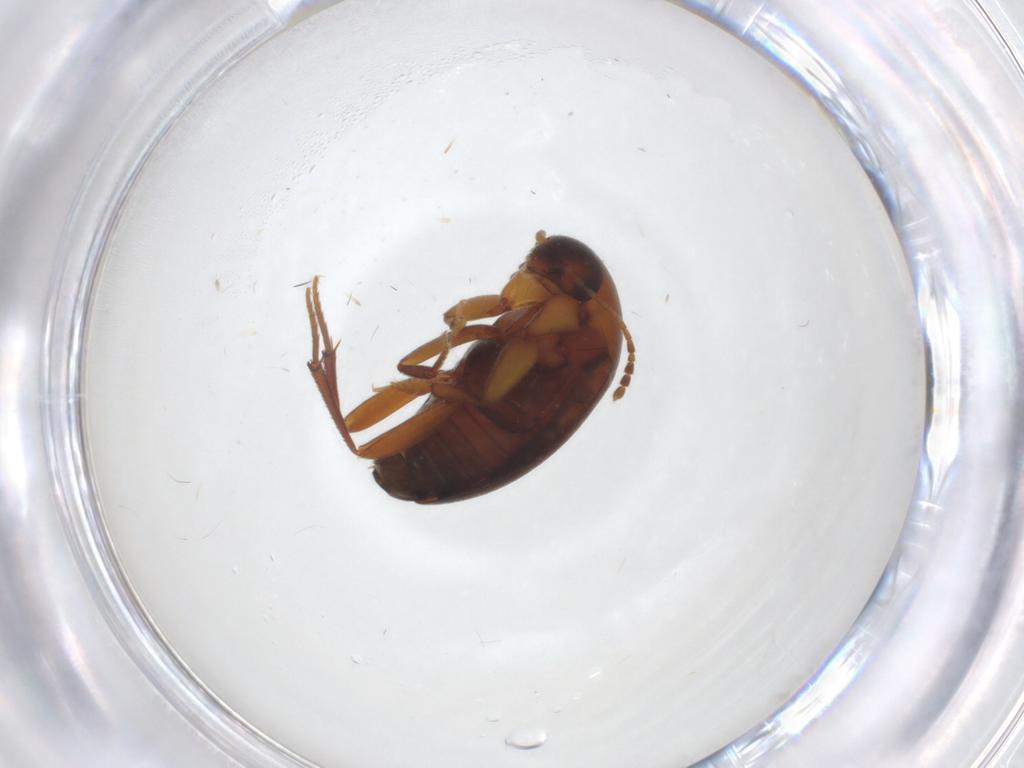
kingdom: Animalia
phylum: Arthropoda
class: Insecta
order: Coleoptera
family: Leiodidae
